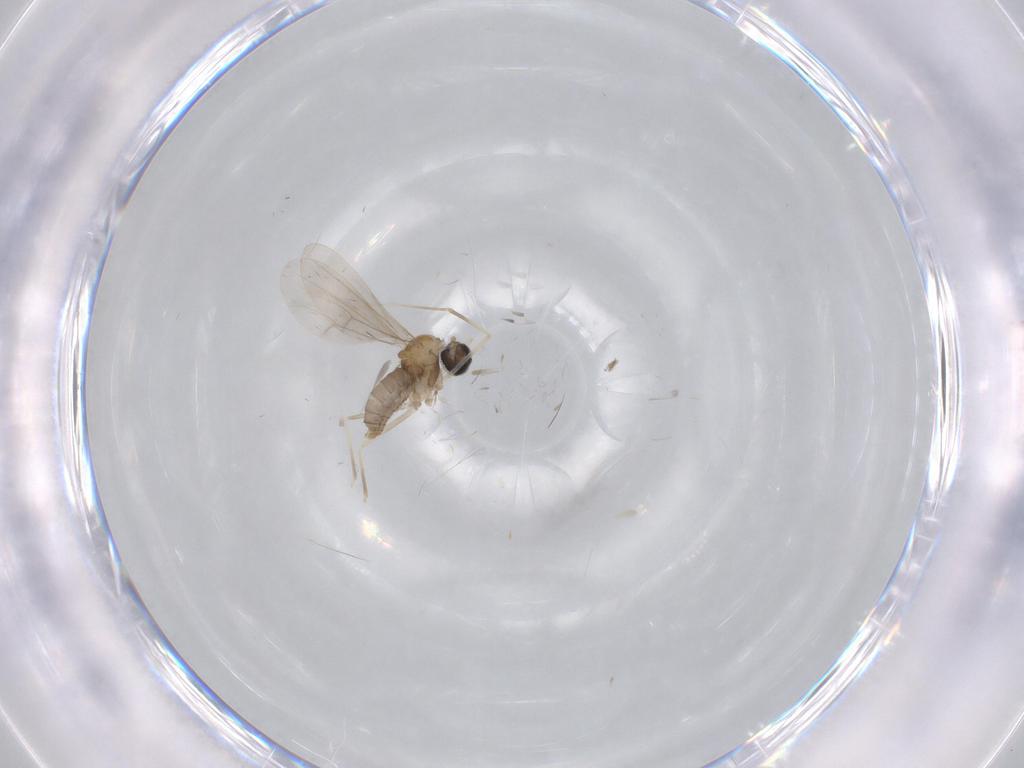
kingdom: Animalia
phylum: Arthropoda
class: Insecta
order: Diptera
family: Cecidomyiidae
